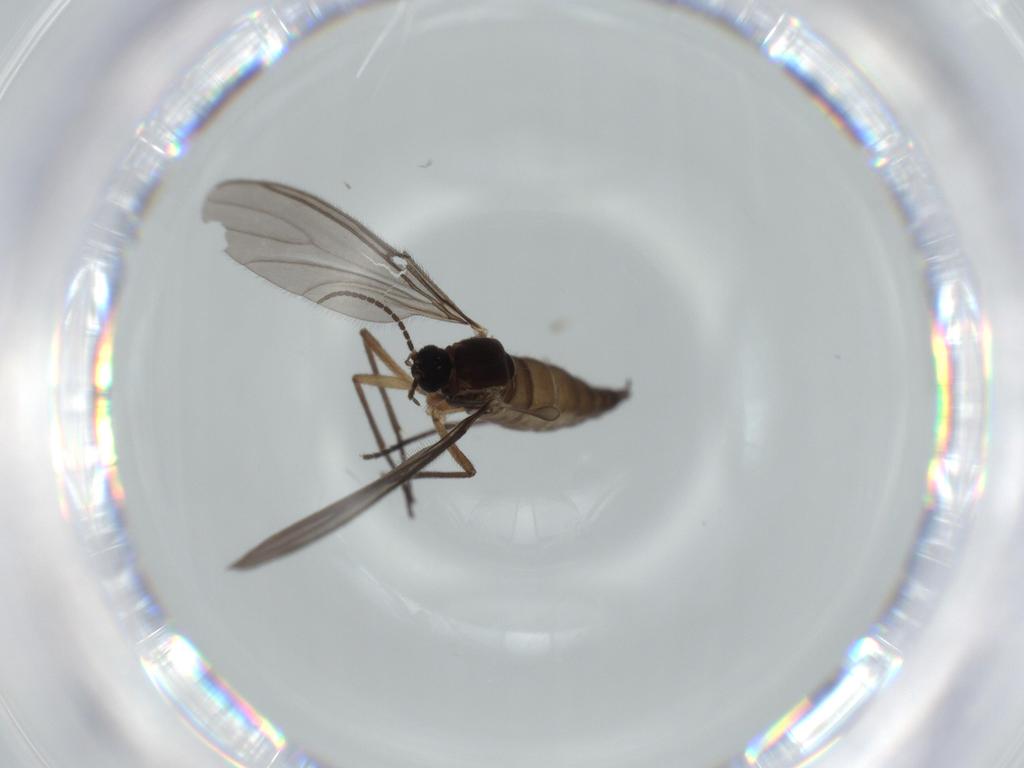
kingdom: Animalia
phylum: Arthropoda
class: Insecta
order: Diptera
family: Sciaridae
